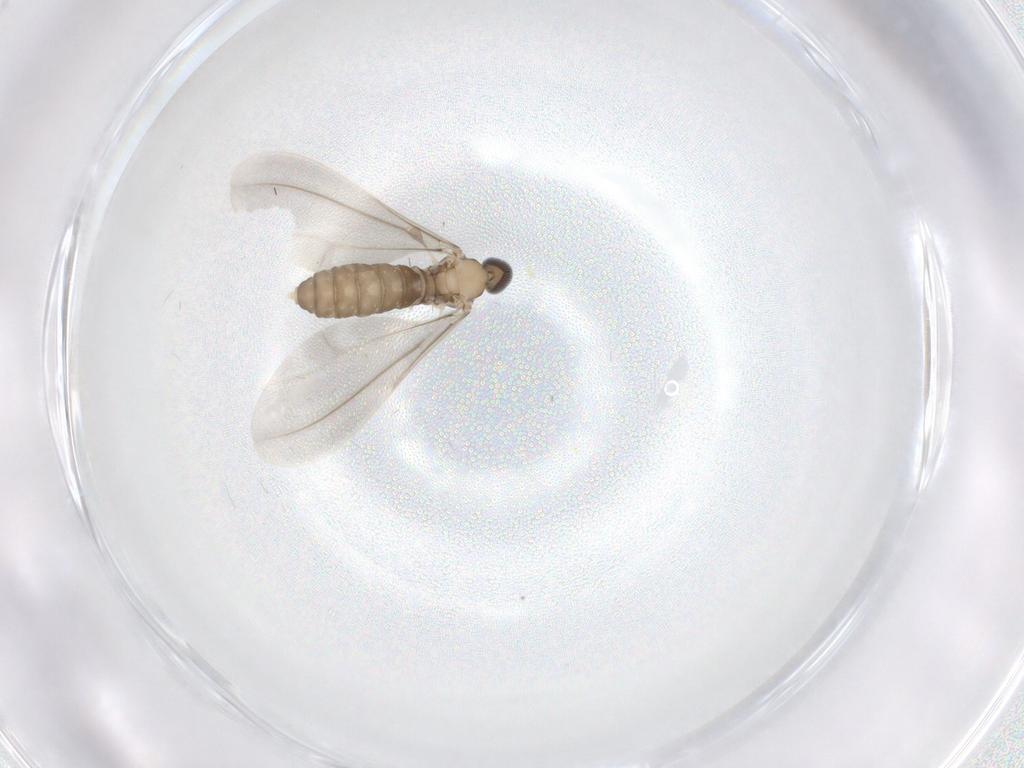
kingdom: Animalia
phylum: Arthropoda
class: Insecta
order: Diptera
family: Cecidomyiidae
